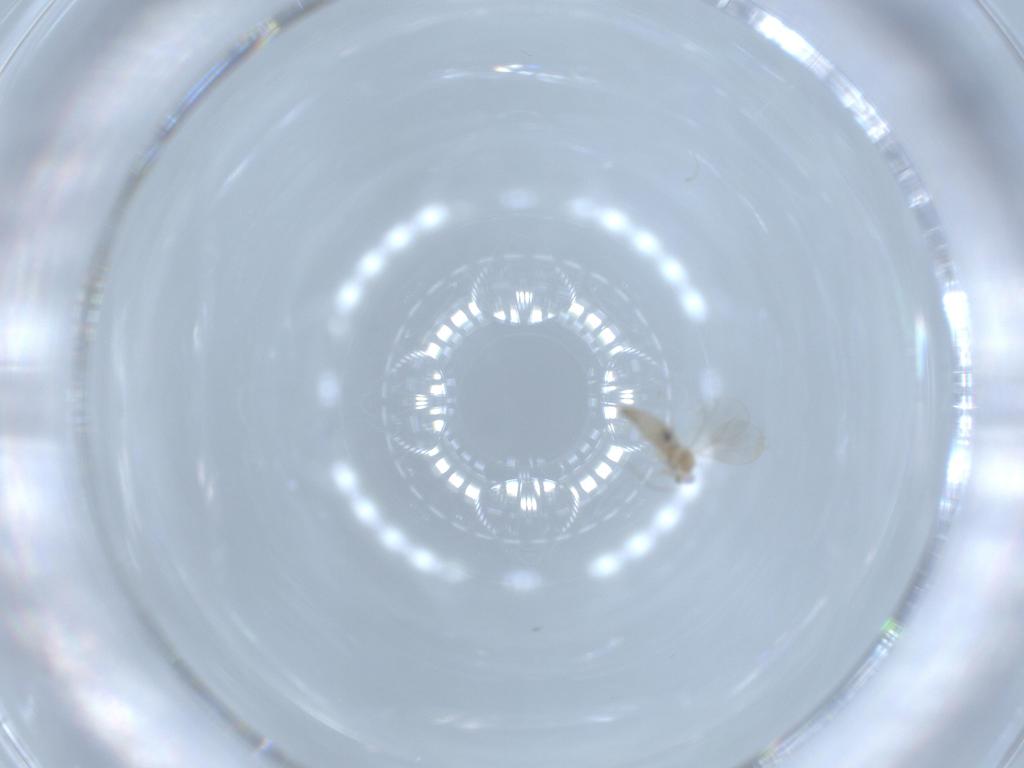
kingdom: Animalia
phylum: Arthropoda
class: Insecta
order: Diptera
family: Cecidomyiidae
